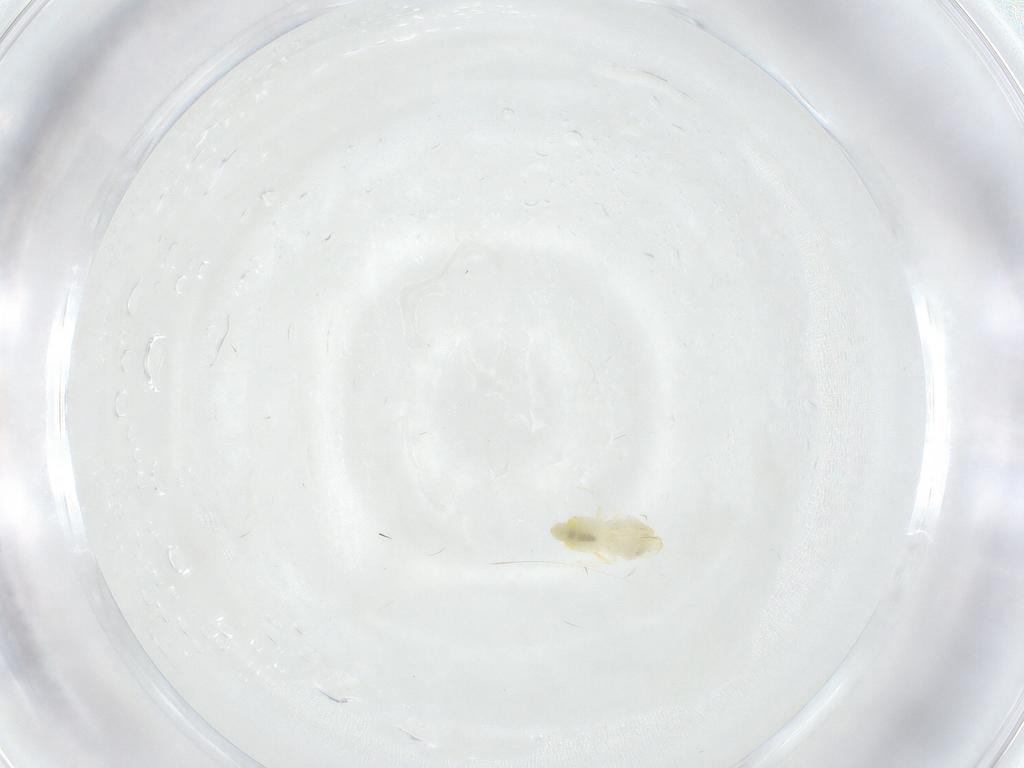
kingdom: Animalia
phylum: Arthropoda
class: Insecta
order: Hemiptera
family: Aleyrodidae
